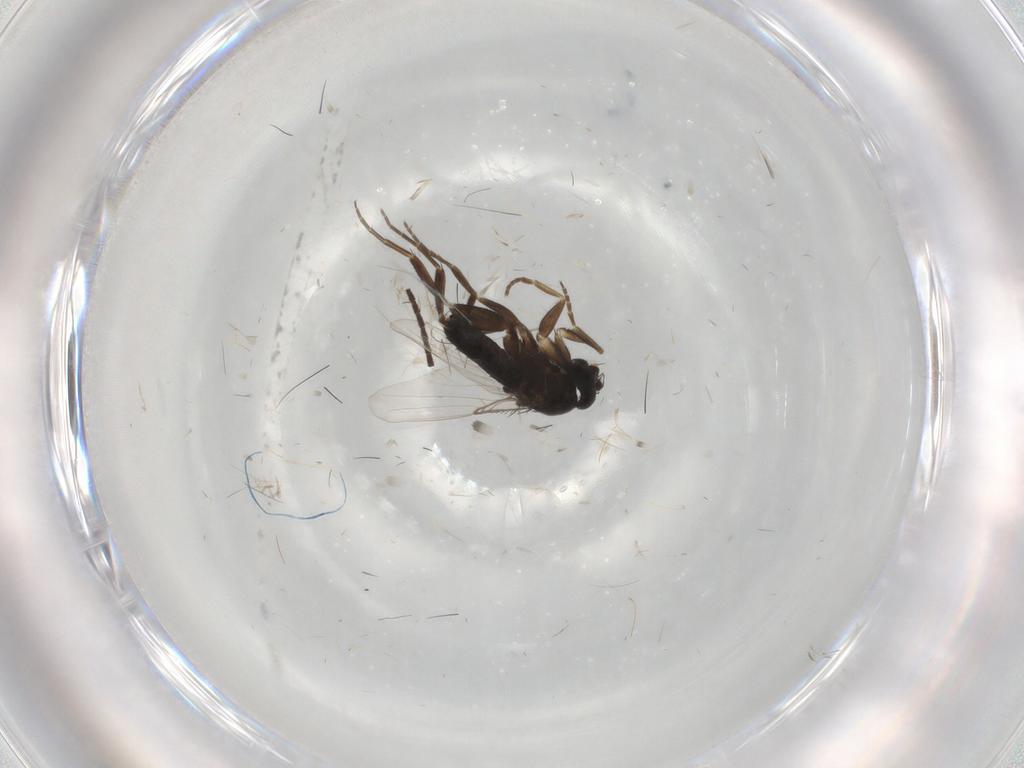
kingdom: Animalia
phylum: Arthropoda
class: Insecta
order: Diptera
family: Phoridae
